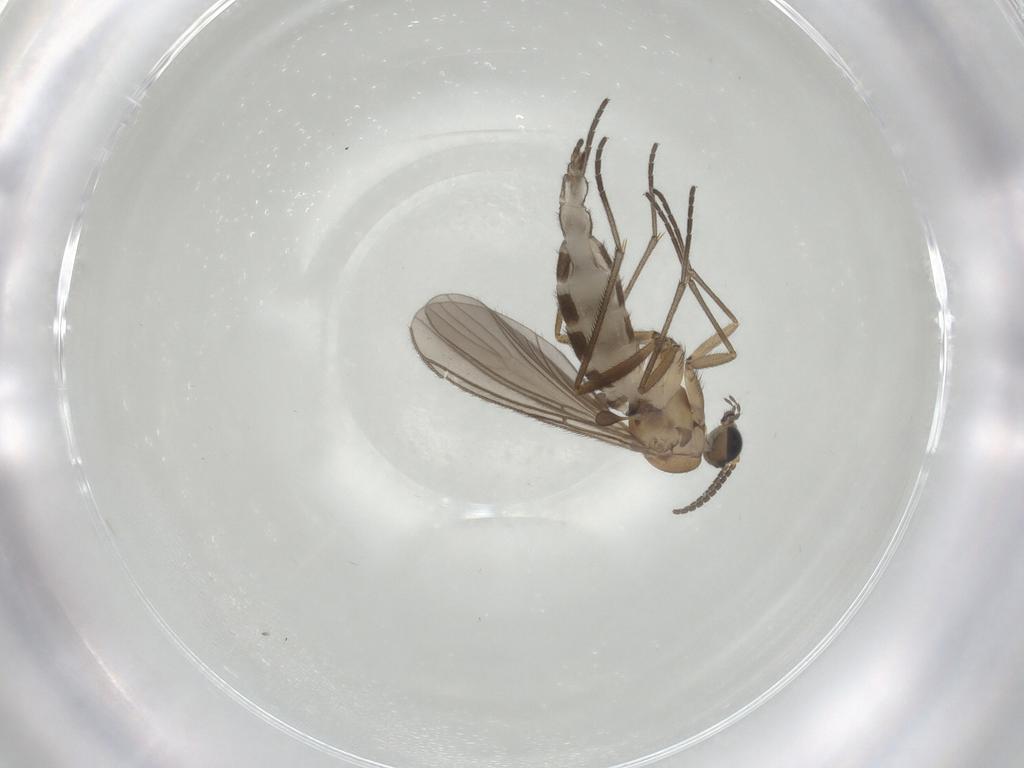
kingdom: Animalia
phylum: Arthropoda
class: Insecta
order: Diptera
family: Sciaridae
